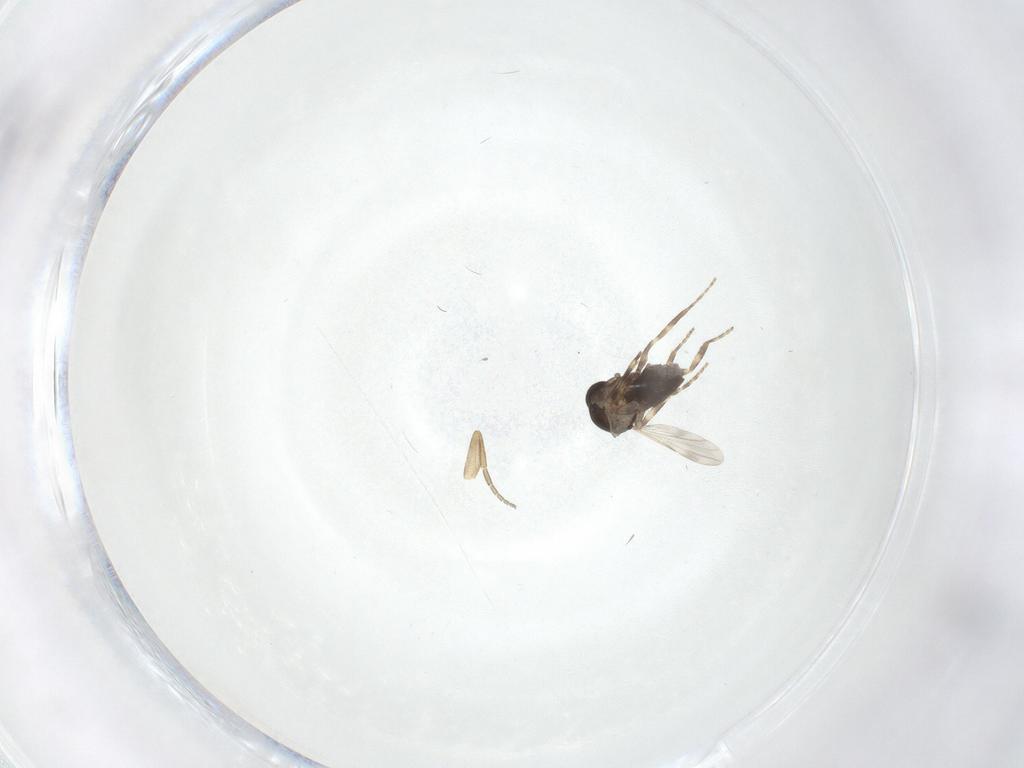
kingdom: Animalia
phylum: Arthropoda
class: Insecta
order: Diptera
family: Ceratopogonidae
